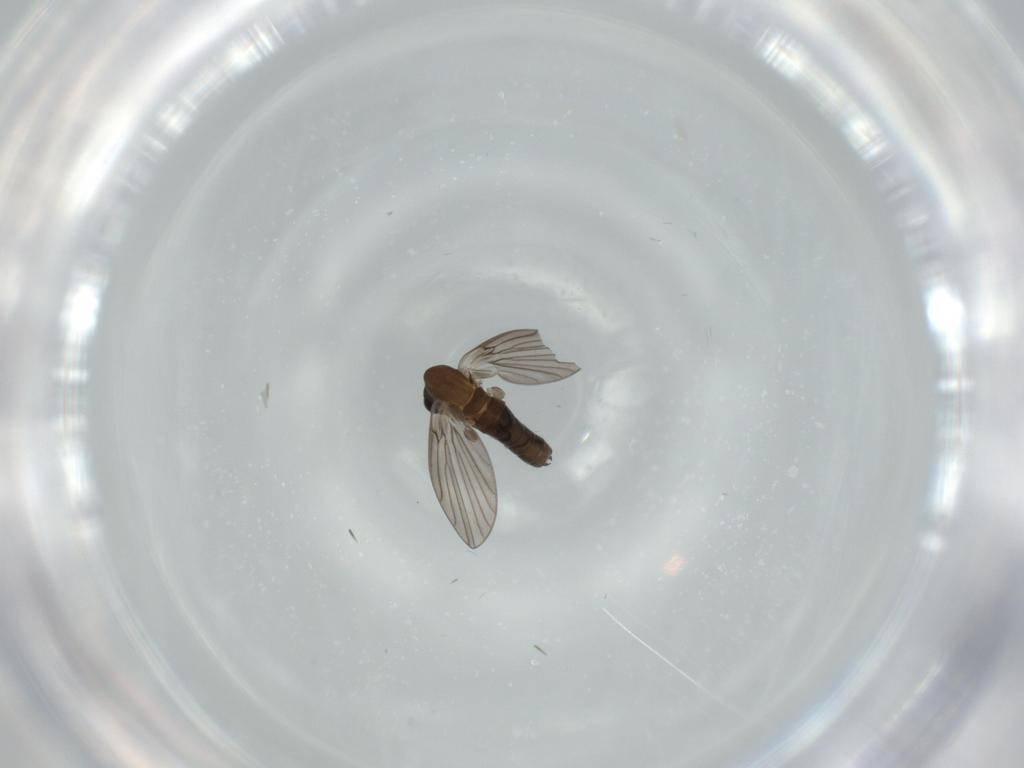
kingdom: Animalia
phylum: Arthropoda
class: Insecta
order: Diptera
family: Psychodidae
